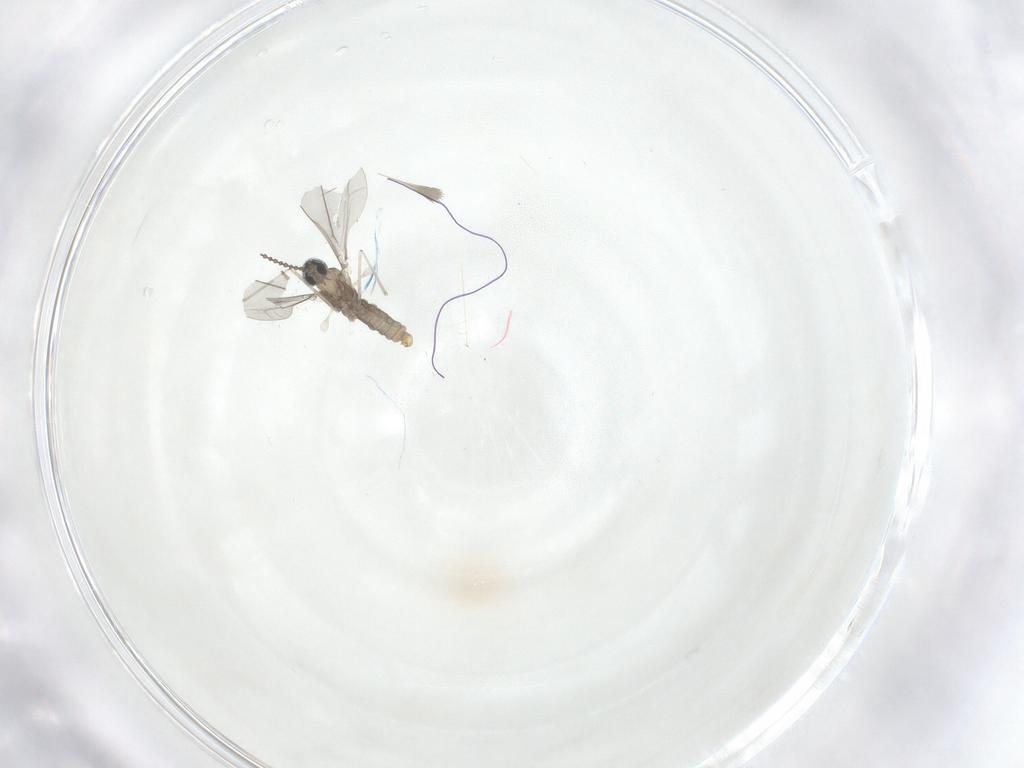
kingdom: Animalia
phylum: Arthropoda
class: Insecta
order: Diptera
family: Cecidomyiidae
